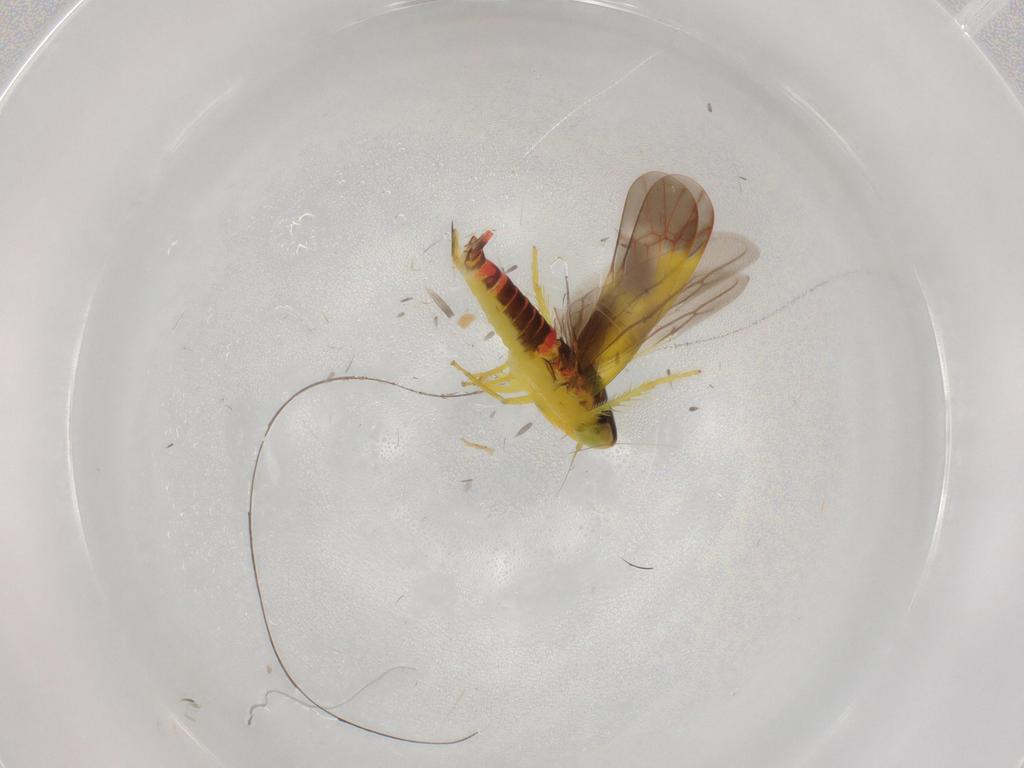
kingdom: Animalia
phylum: Arthropoda
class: Insecta
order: Hemiptera
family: Cicadellidae
